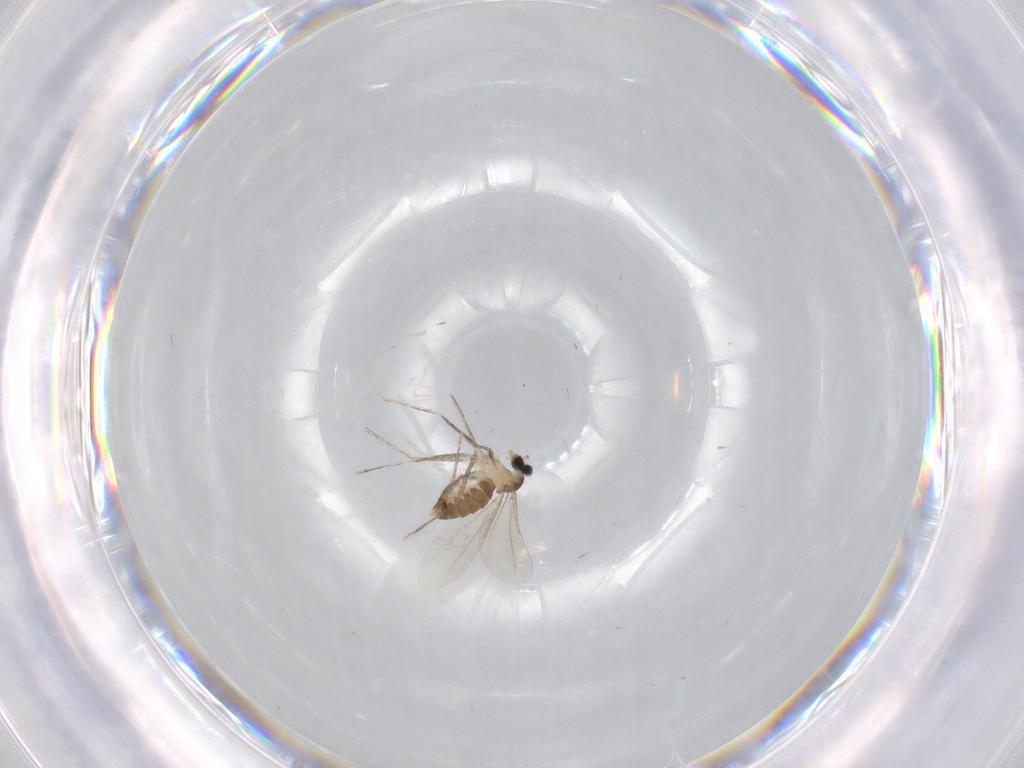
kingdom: Animalia
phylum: Arthropoda
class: Insecta
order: Diptera
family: Cecidomyiidae
